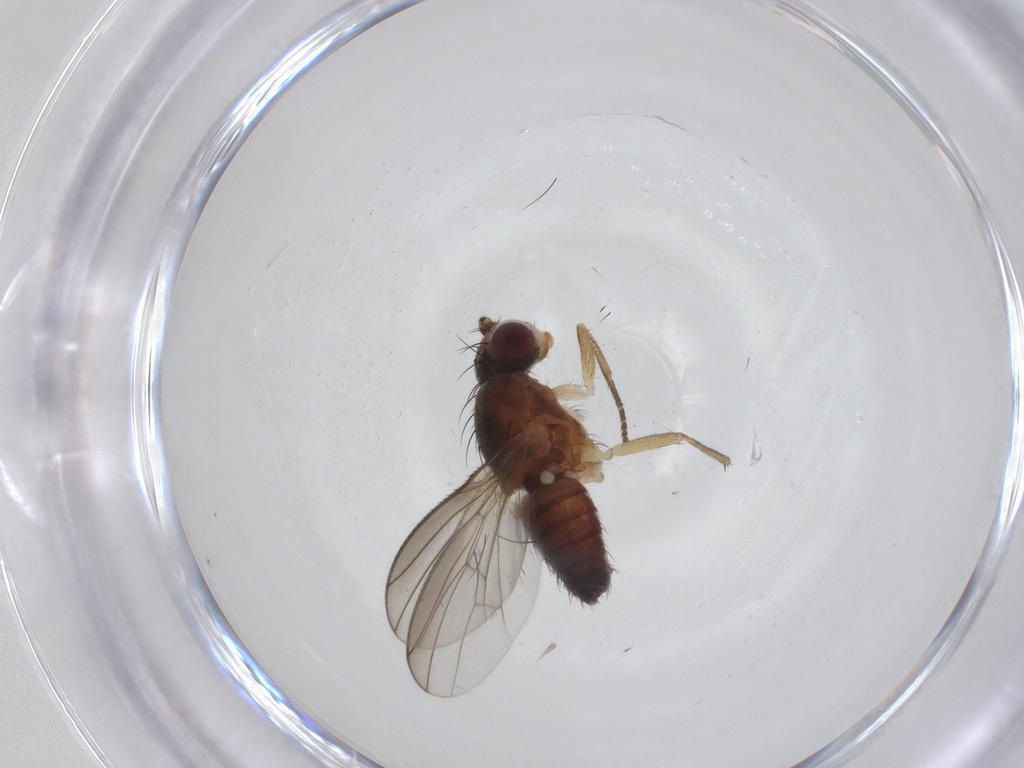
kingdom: Animalia
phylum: Arthropoda
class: Insecta
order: Diptera
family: Heleomyzidae
